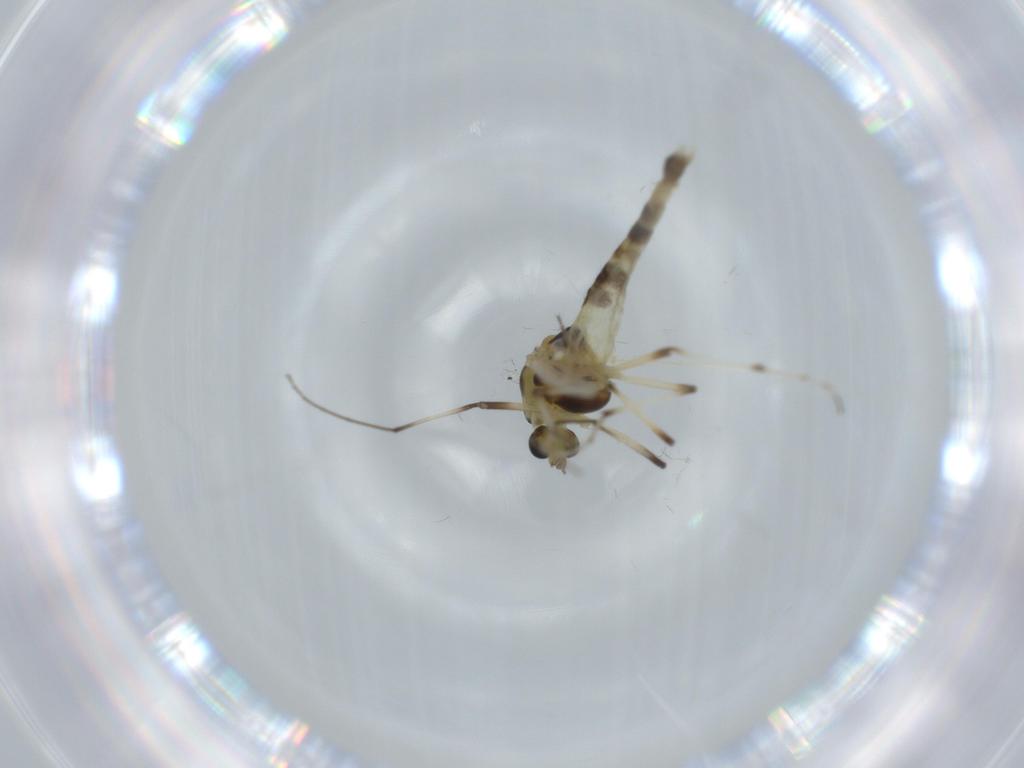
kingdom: Animalia
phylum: Arthropoda
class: Insecta
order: Diptera
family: Chironomidae
